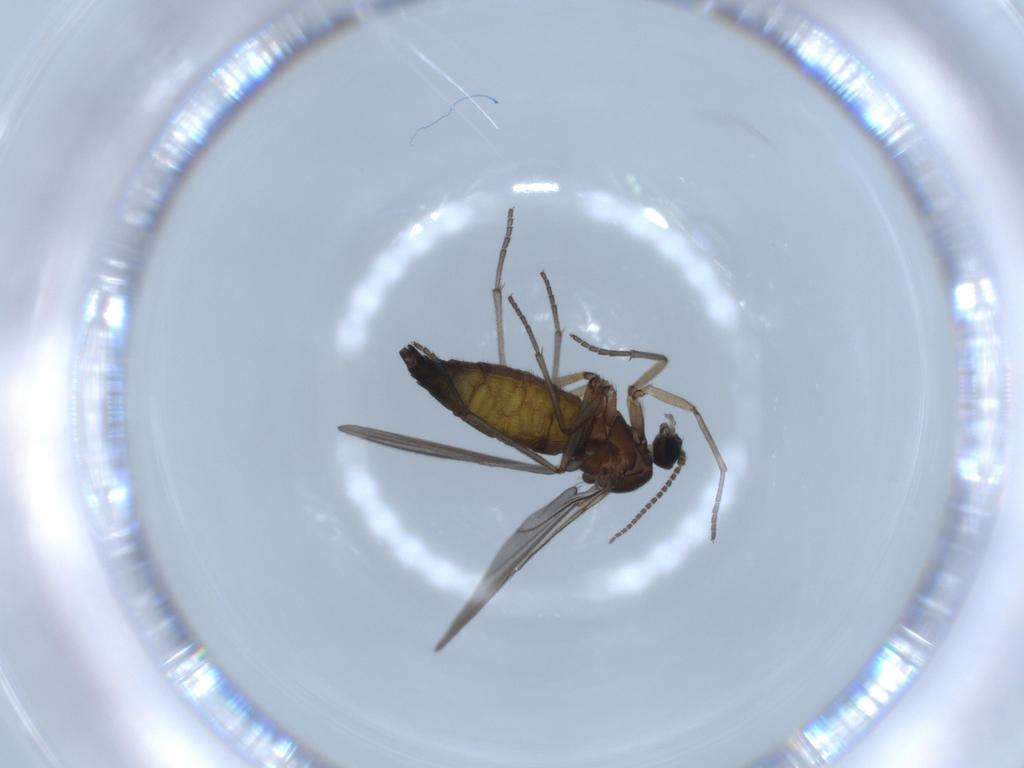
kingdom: Animalia
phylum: Arthropoda
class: Insecta
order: Diptera
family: Sciaridae
